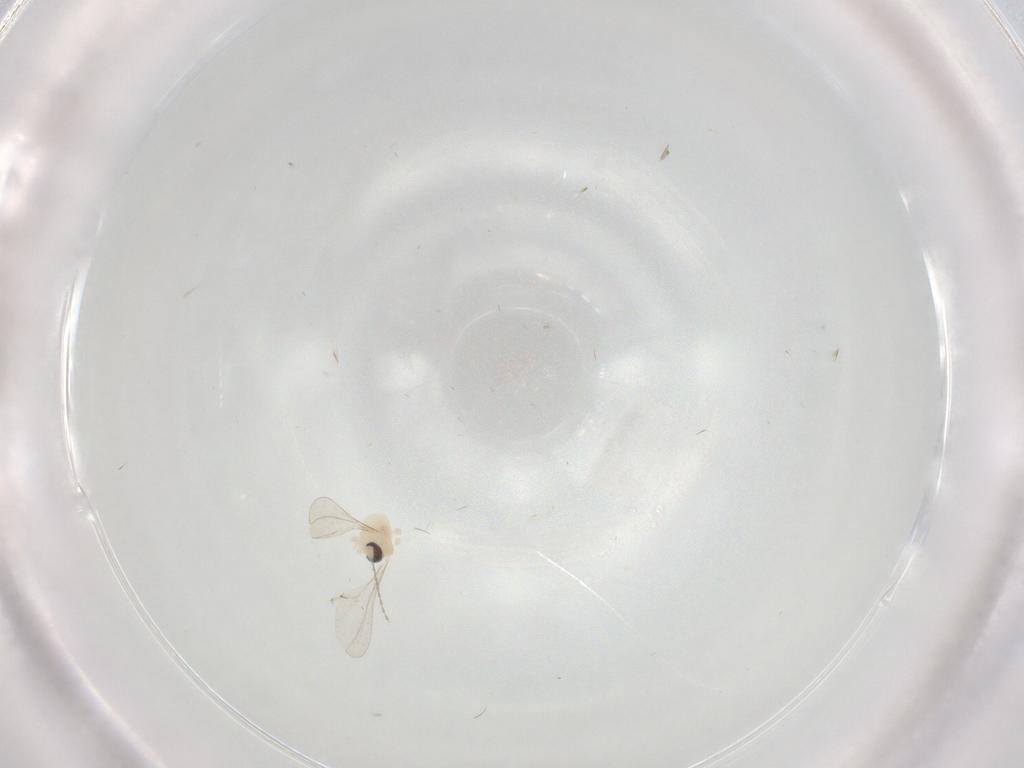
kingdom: Animalia
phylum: Arthropoda
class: Insecta
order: Diptera
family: Cecidomyiidae
